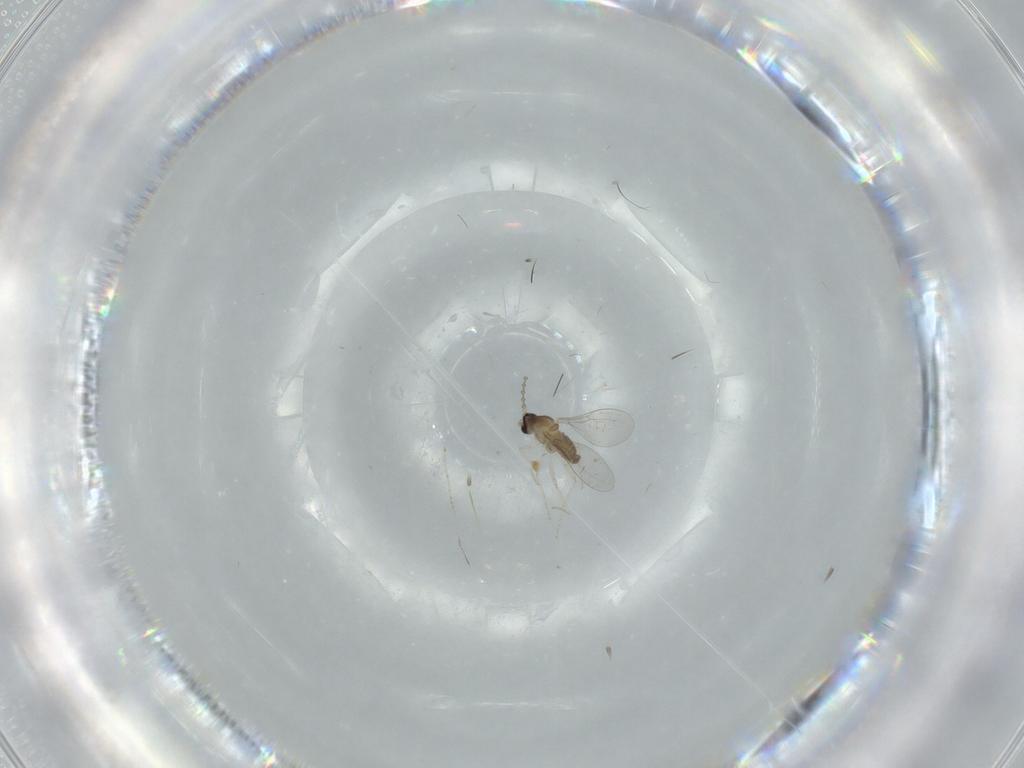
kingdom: Animalia
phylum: Arthropoda
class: Insecta
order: Diptera
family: Cecidomyiidae
